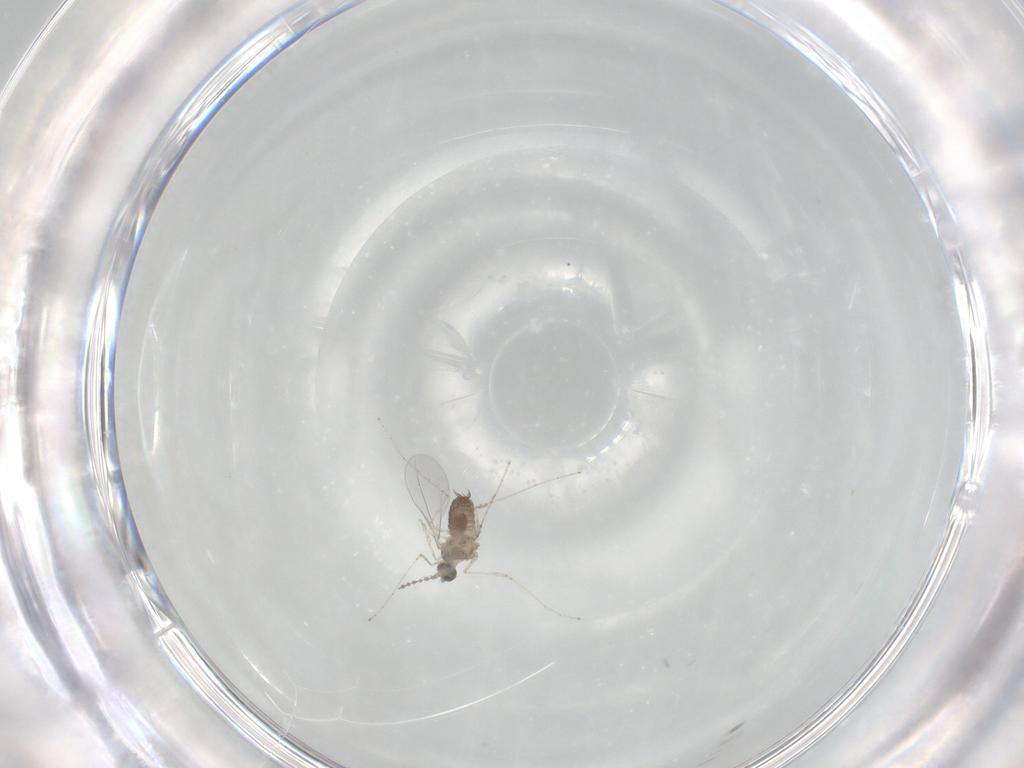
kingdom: Animalia
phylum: Arthropoda
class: Insecta
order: Diptera
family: Cecidomyiidae
